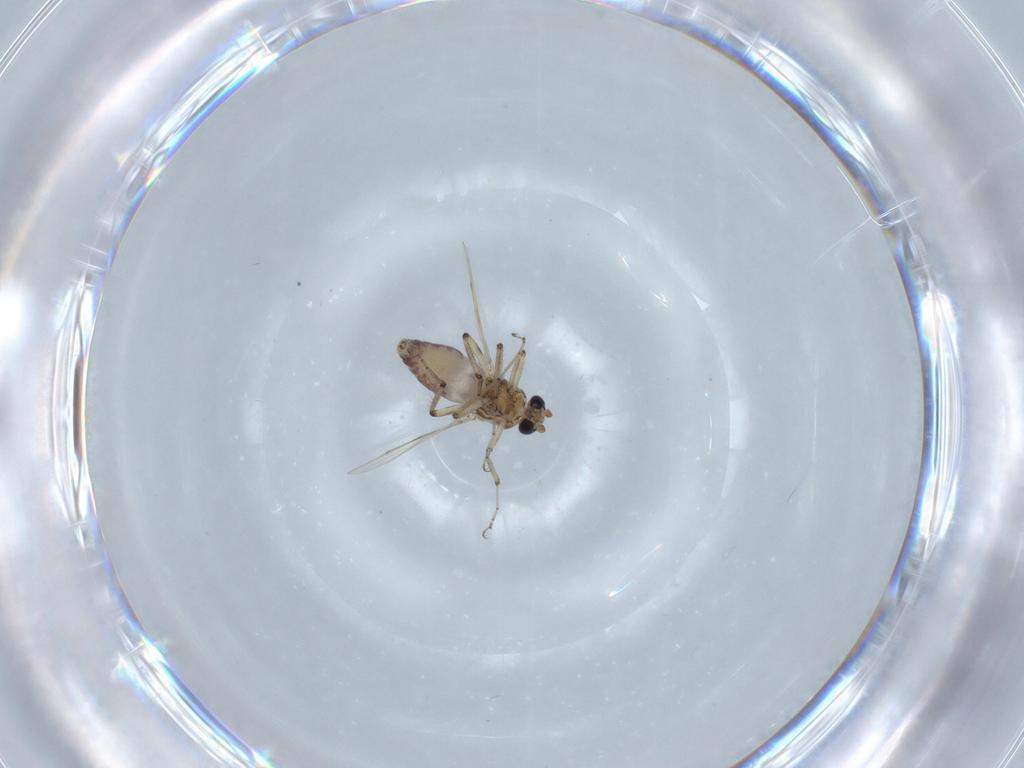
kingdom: Animalia
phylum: Arthropoda
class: Insecta
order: Diptera
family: Ceratopogonidae
